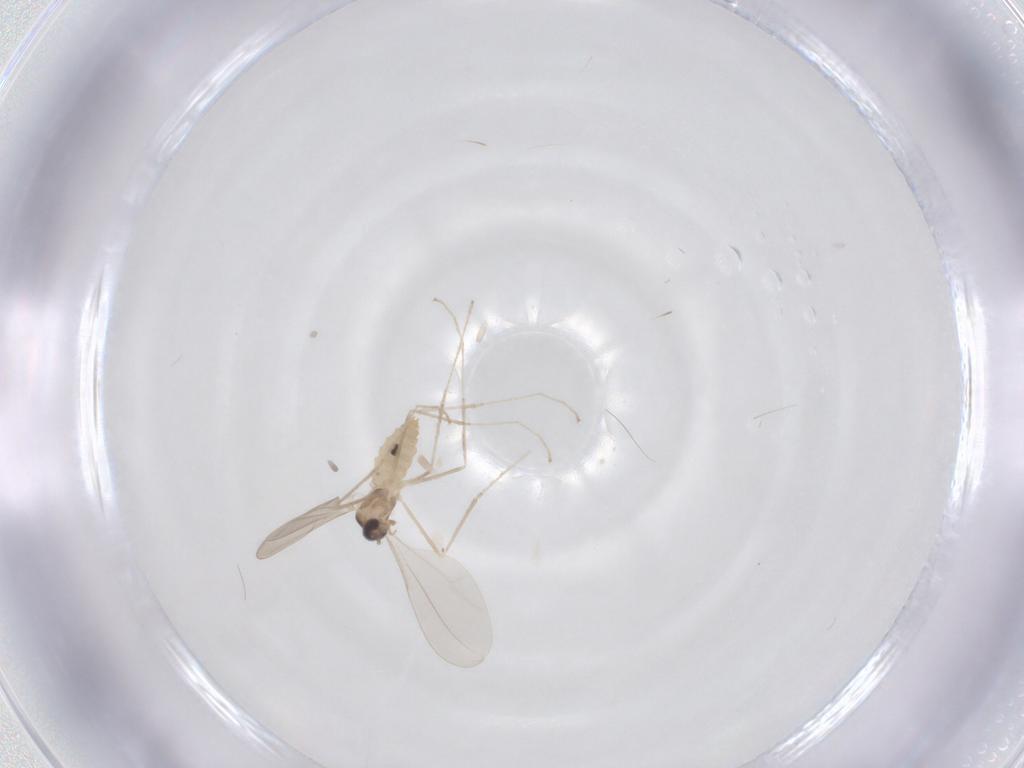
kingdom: Animalia
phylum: Arthropoda
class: Insecta
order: Diptera
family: Cecidomyiidae
